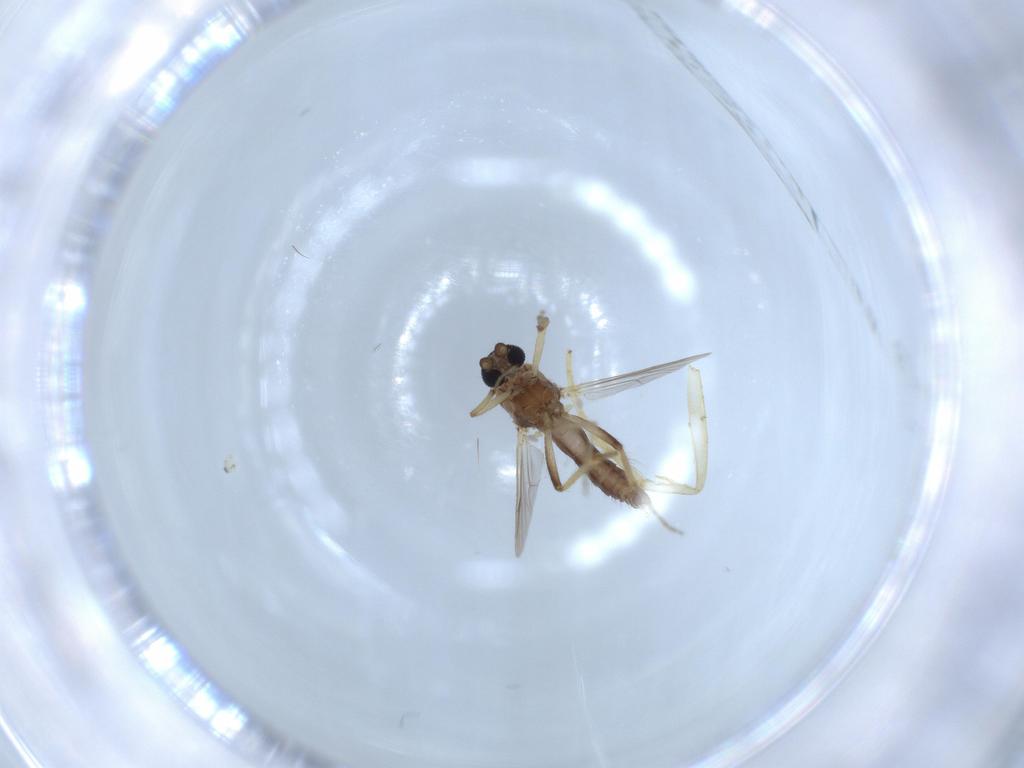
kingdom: Animalia
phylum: Arthropoda
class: Insecta
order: Diptera
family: Ceratopogonidae
